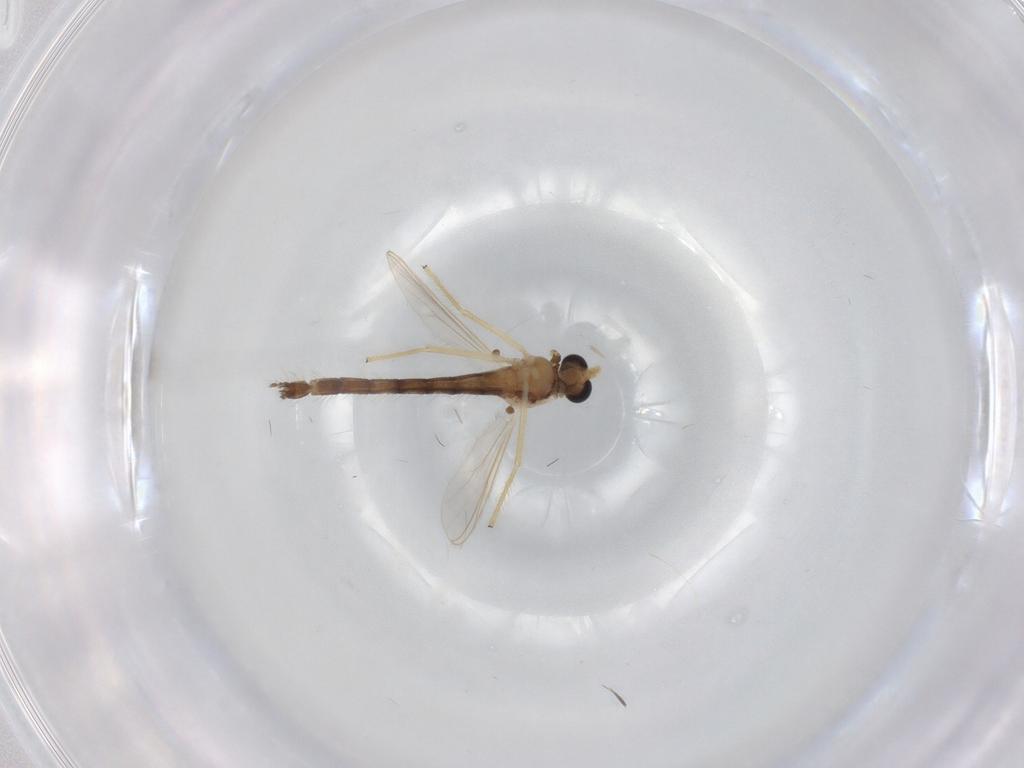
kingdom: Animalia
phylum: Arthropoda
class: Insecta
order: Diptera
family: Chironomidae
